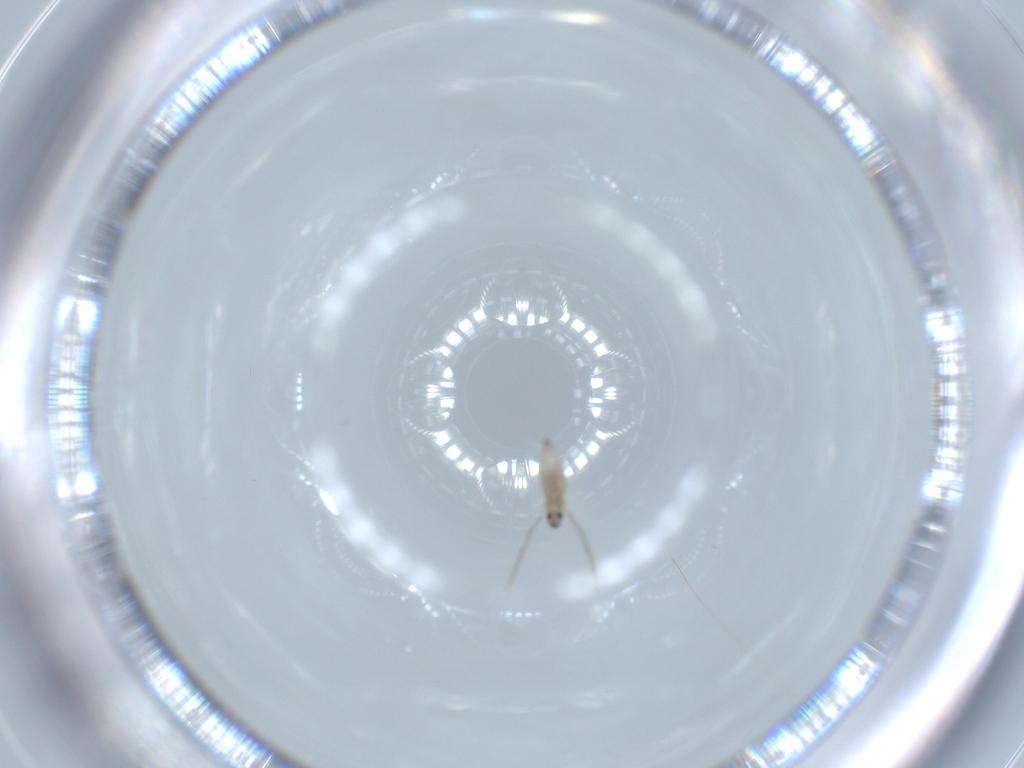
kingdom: Animalia
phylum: Arthropoda
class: Insecta
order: Diptera
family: Cecidomyiidae
